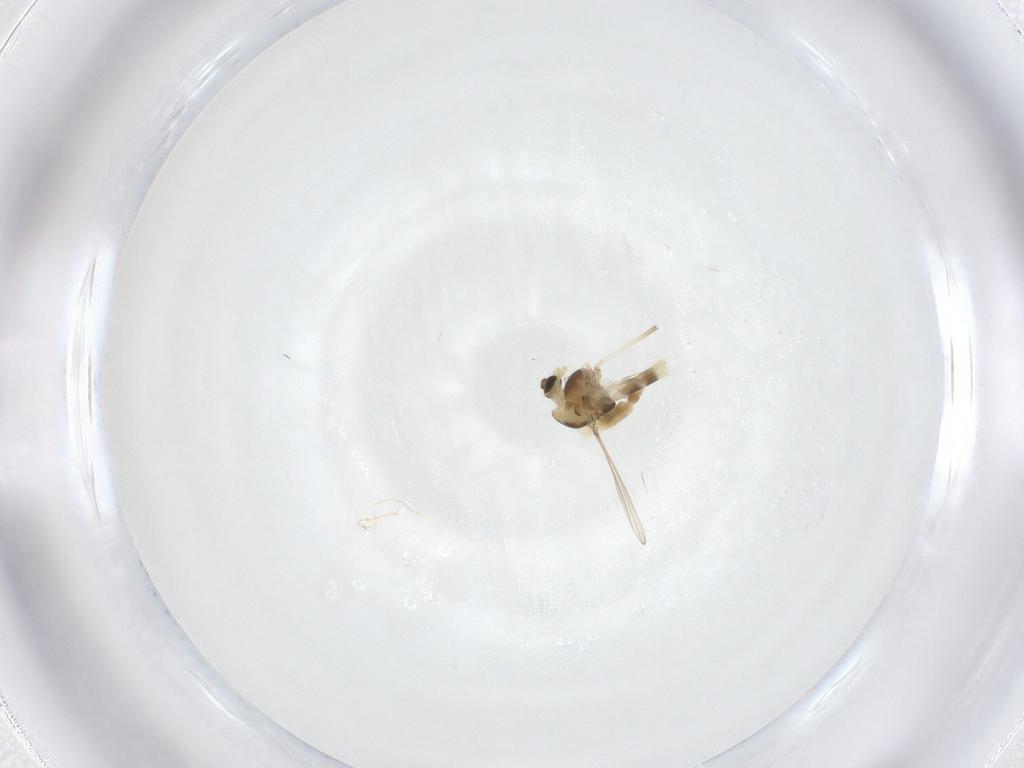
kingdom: Animalia
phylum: Arthropoda
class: Insecta
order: Diptera
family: Chironomidae
